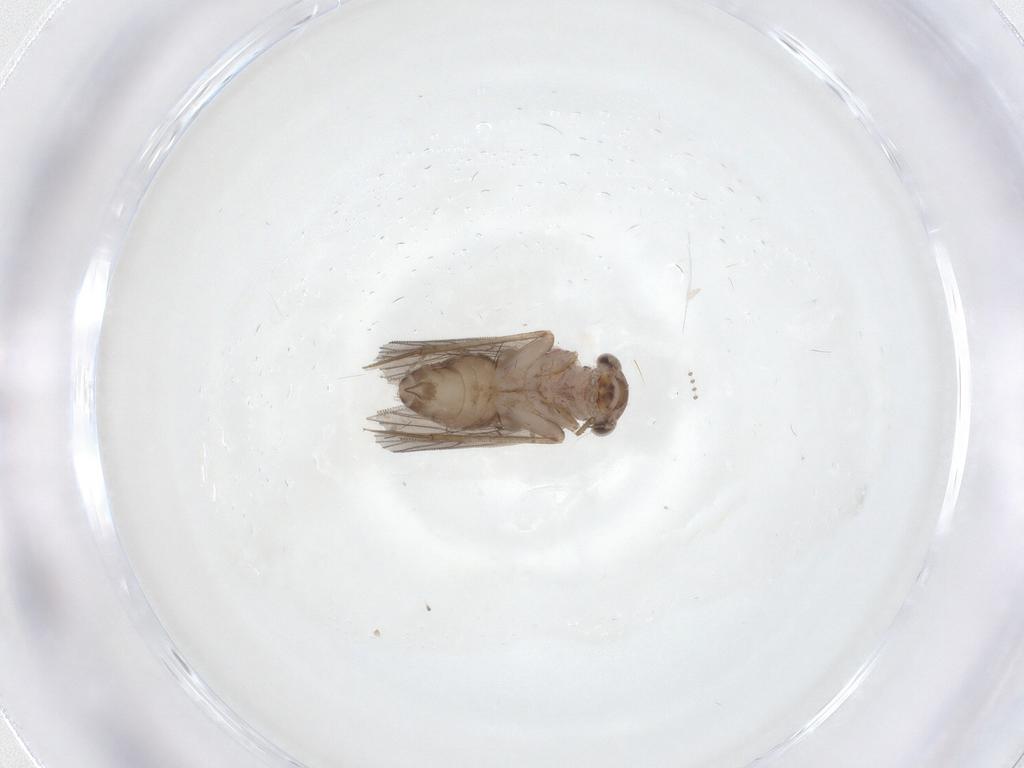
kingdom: Animalia
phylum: Arthropoda
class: Insecta
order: Psocodea
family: Lepidopsocidae
